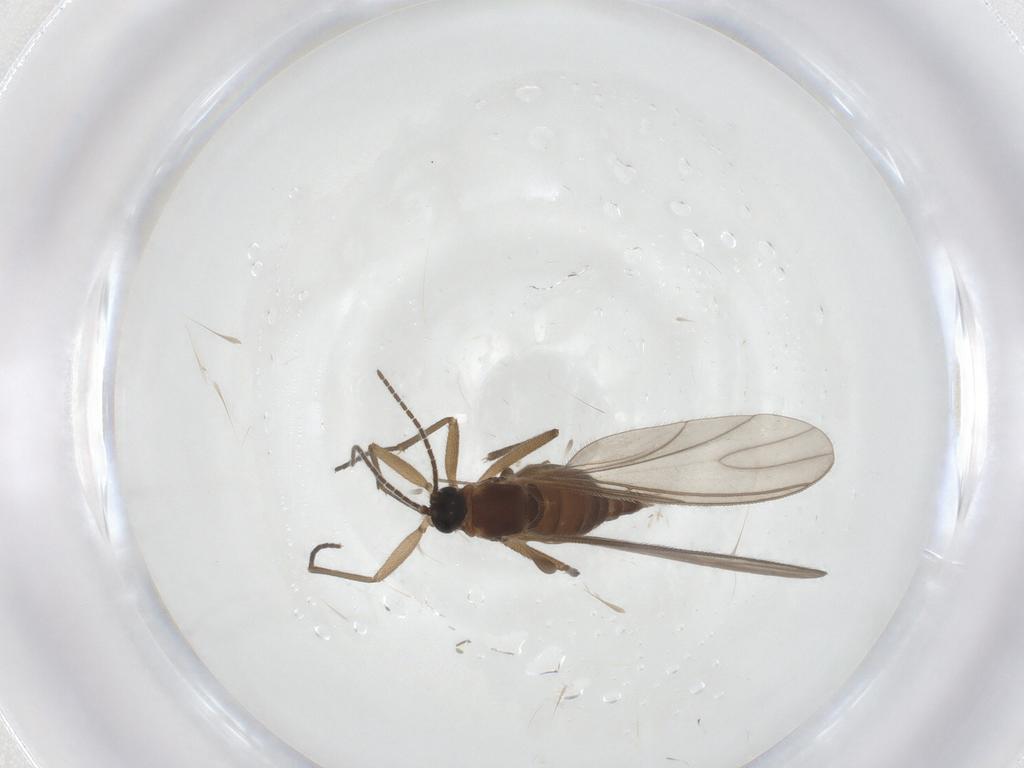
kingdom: Animalia
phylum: Arthropoda
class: Insecta
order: Diptera
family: Sciaridae
